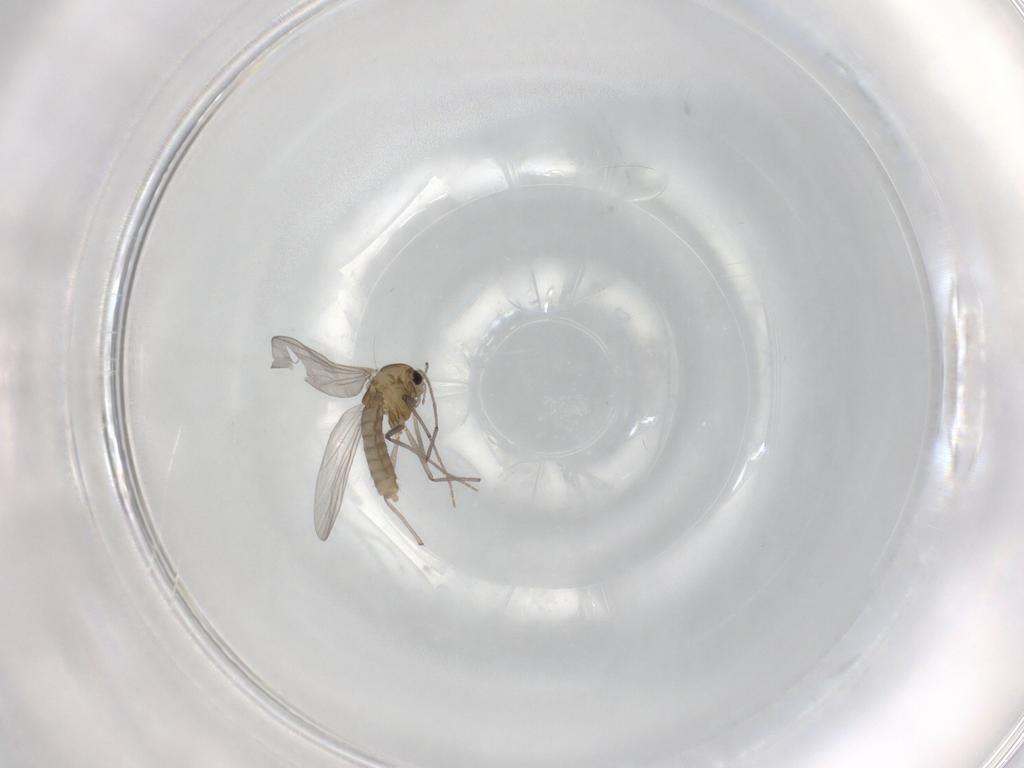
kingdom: Animalia
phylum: Arthropoda
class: Insecta
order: Diptera
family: Chironomidae
